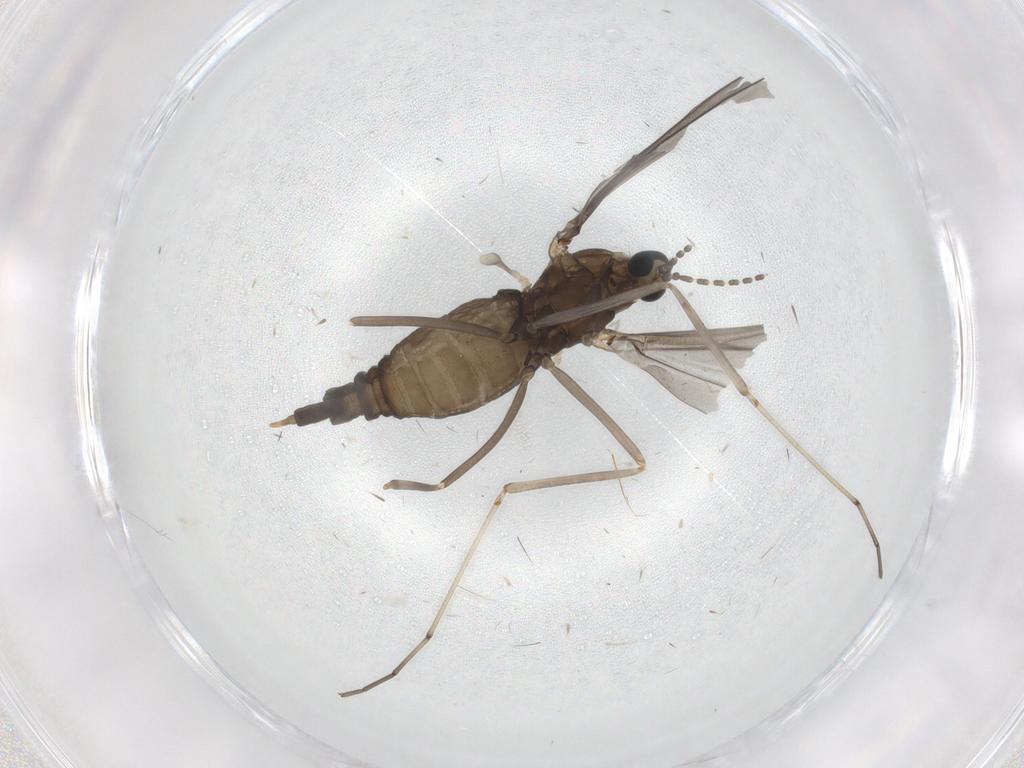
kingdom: Animalia
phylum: Arthropoda
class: Insecta
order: Diptera
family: Cecidomyiidae
